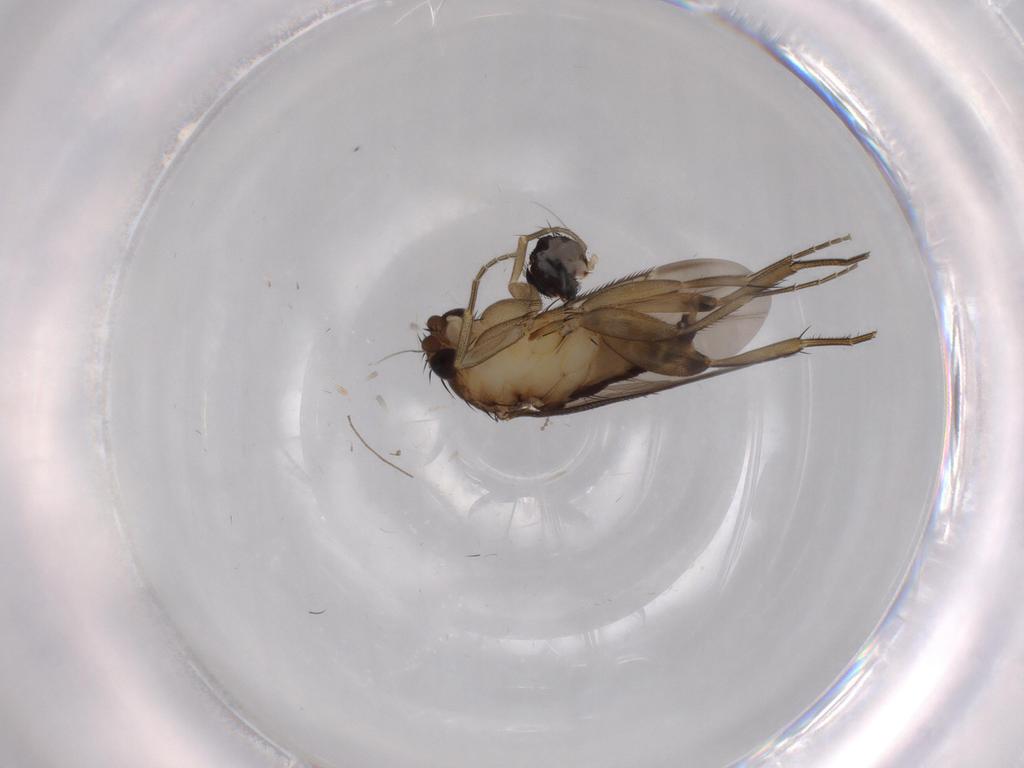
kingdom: Animalia
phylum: Arthropoda
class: Insecta
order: Diptera
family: Phoridae
